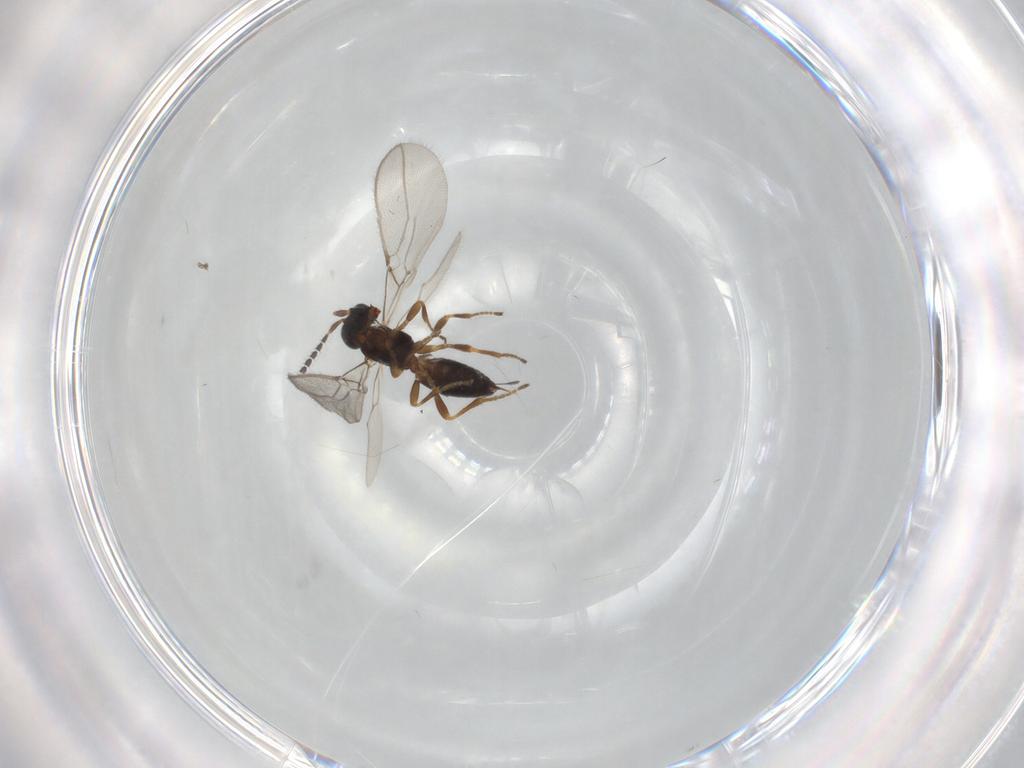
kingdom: Animalia
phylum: Arthropoda
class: Insecta
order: Hymenoptera
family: Braconidae
